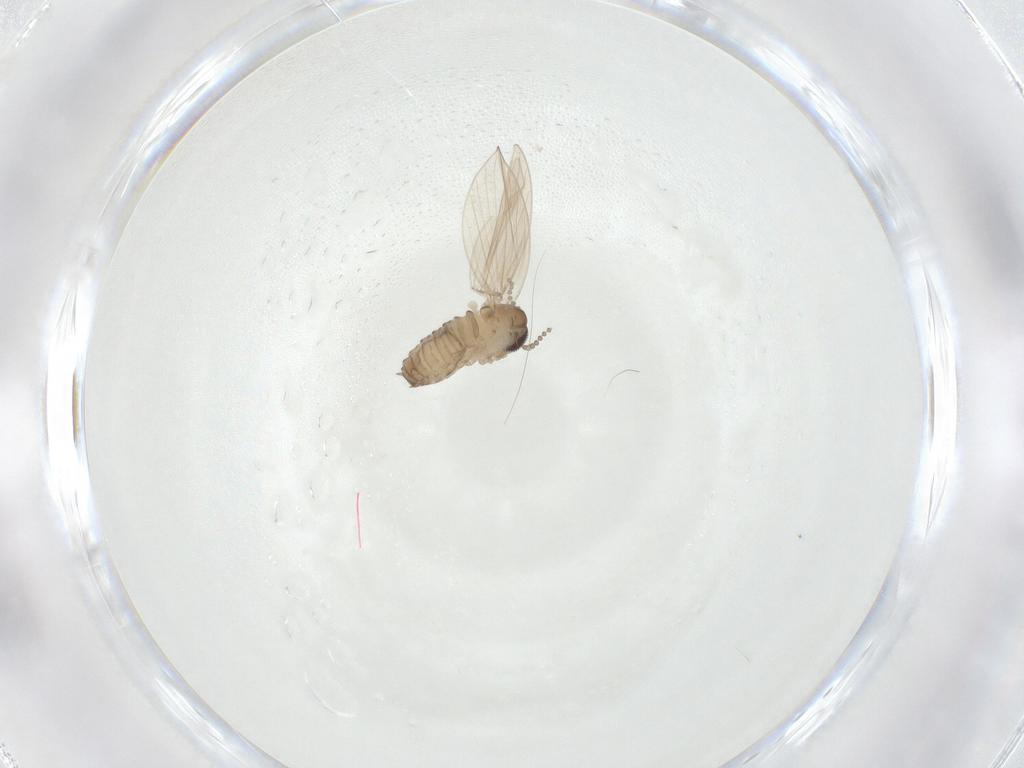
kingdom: Animalia
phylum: Arthropoda
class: Insecta
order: Diptera
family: Psychodidae
